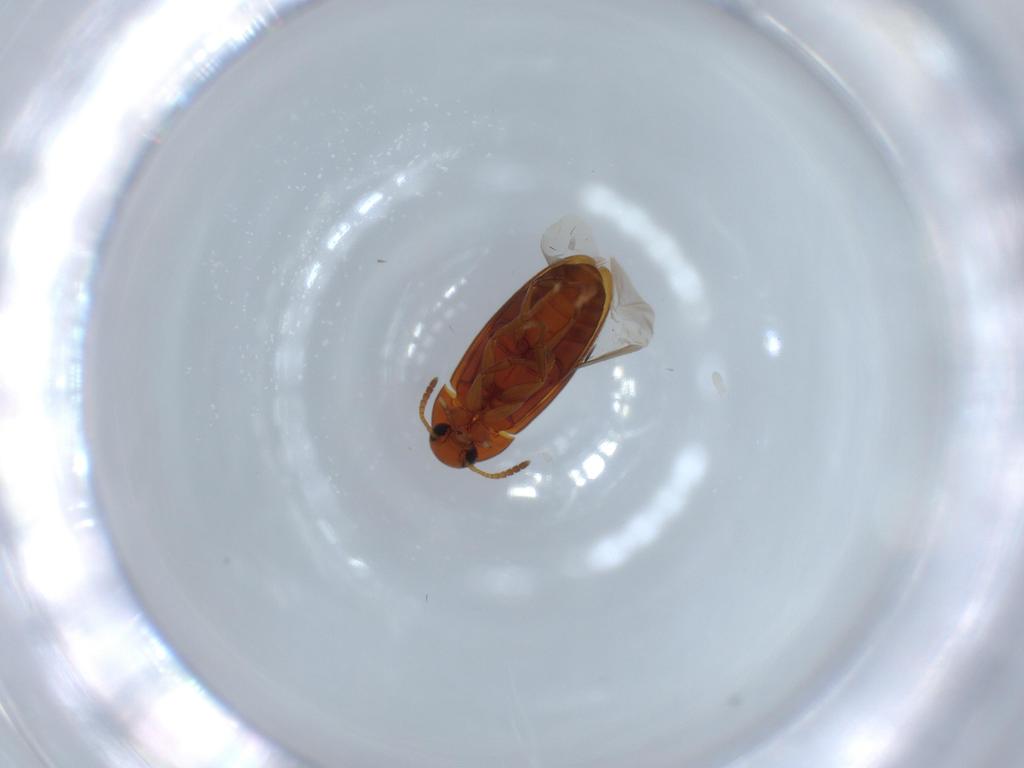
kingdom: Animalia
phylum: Arthropoda
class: Insecta
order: Coleoptera
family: Scraptiidae
